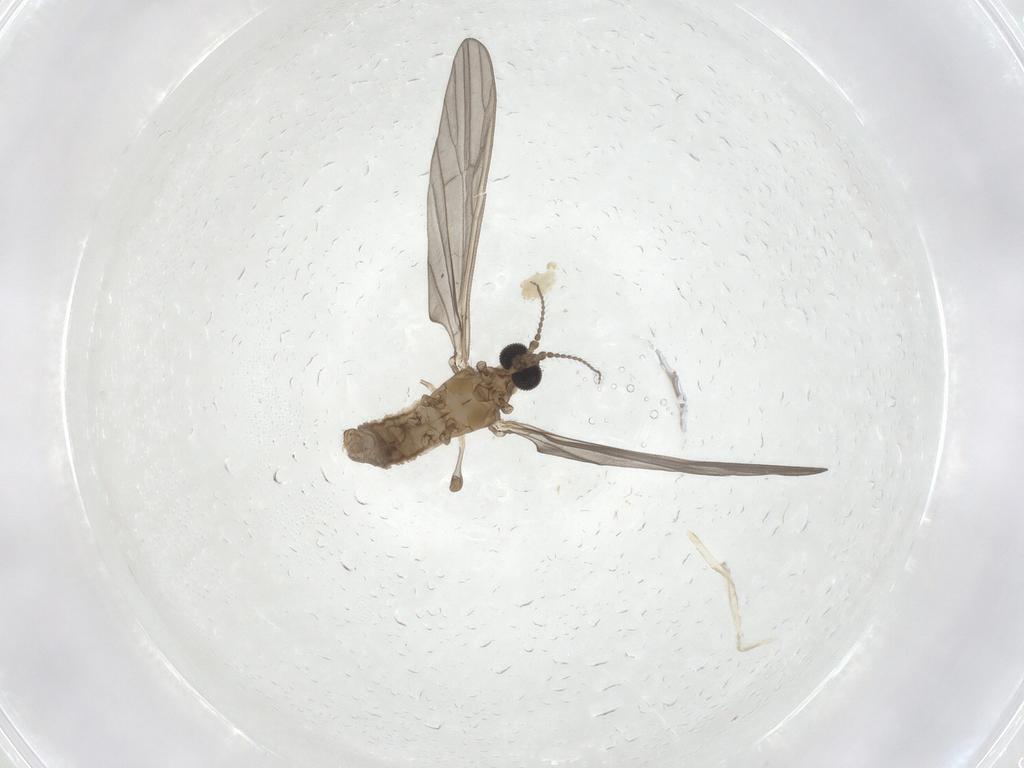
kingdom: Animalia
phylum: Arthropoda
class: Insecta
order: Diptera
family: Limoniidae
